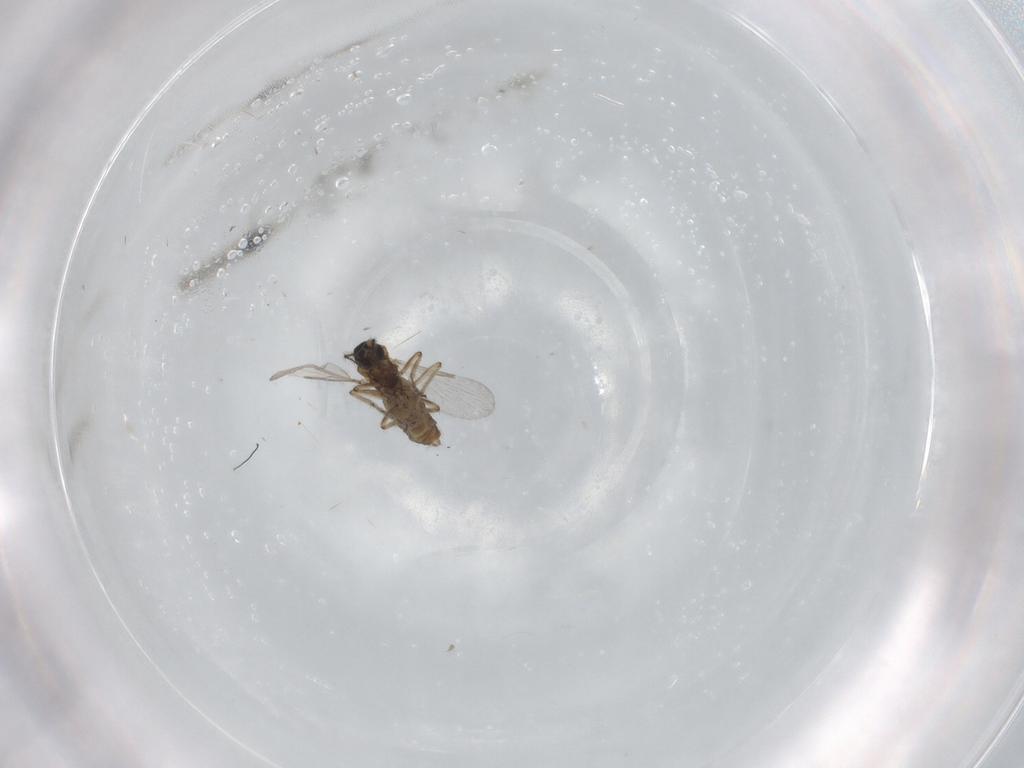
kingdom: Animalia
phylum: Arthropoda
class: Insecta
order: Diptera
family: Ceratopogonidae
